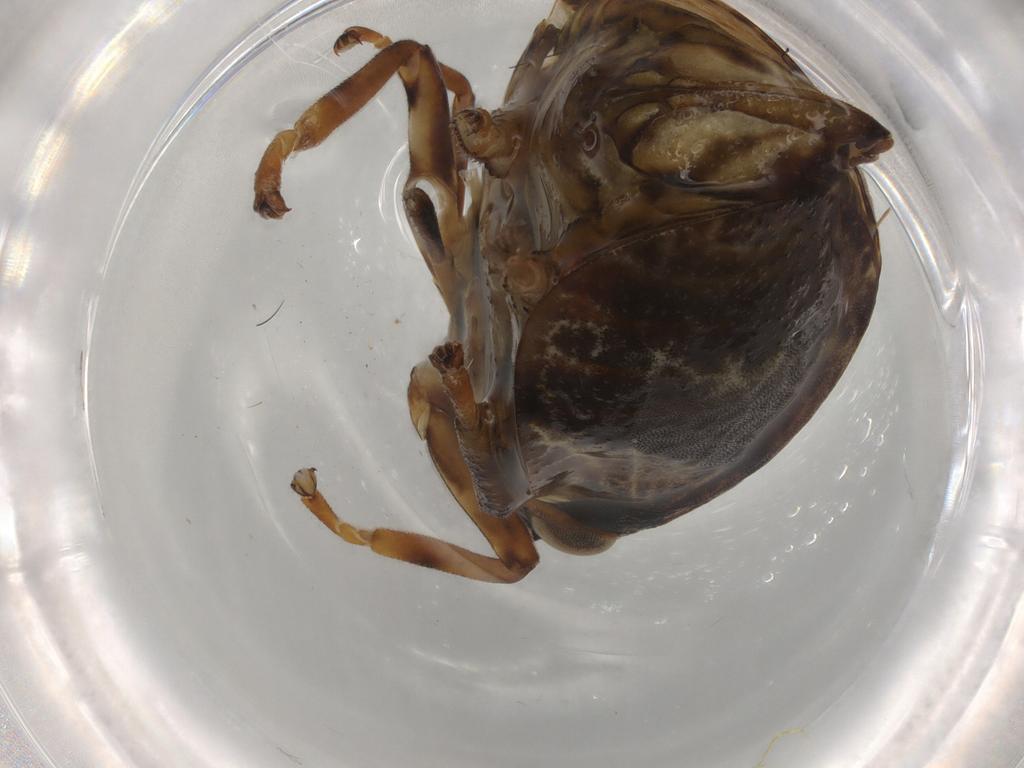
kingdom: Animalia
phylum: Arthropoda
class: Insecta
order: Hemiptera
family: Aphrophoridae
